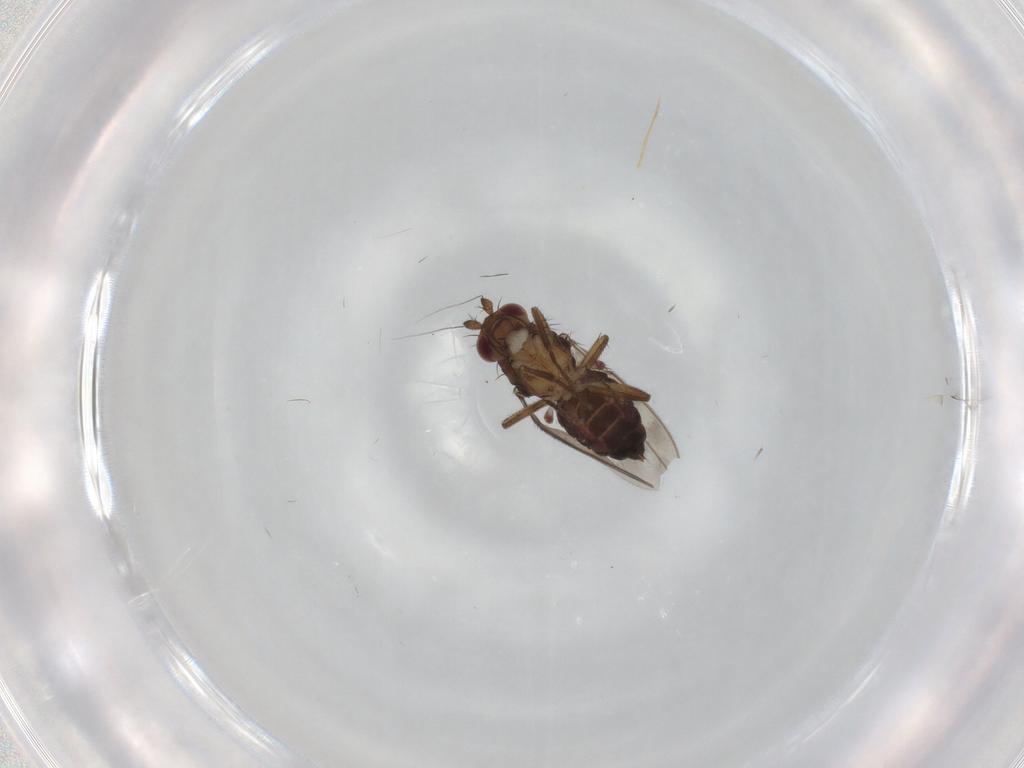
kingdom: Animalia
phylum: Arthropoda
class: Insecta
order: Diptera
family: Sphaeroceridae
